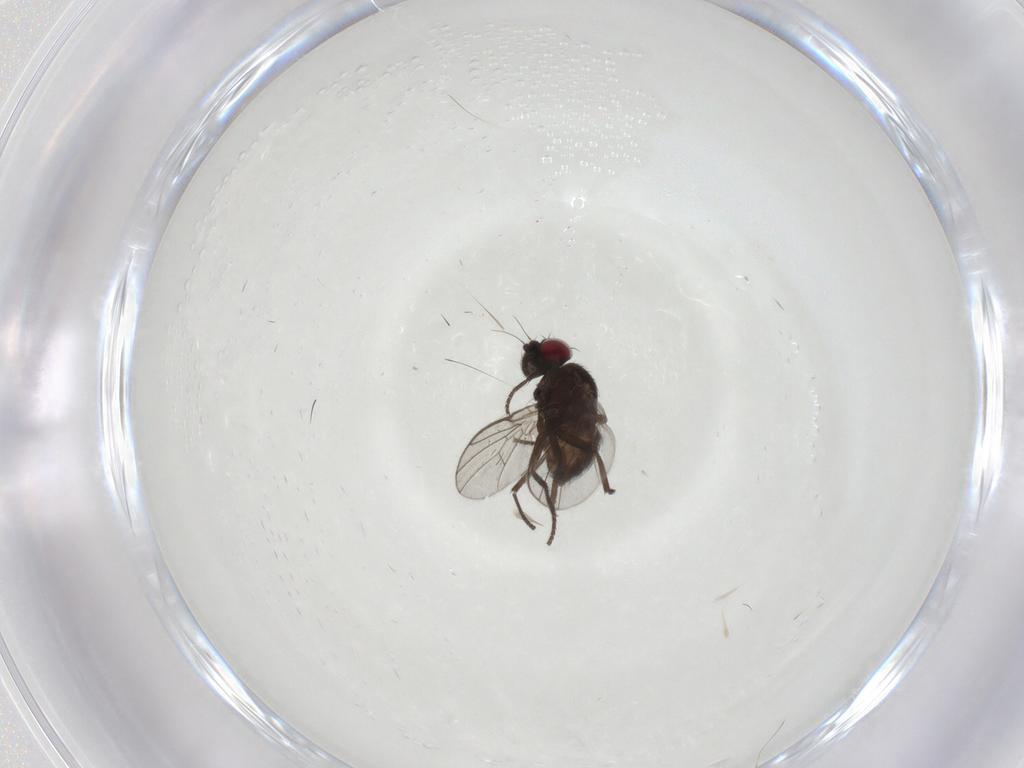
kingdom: Animalia
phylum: Arthropoda
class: Insecta
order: Diptera
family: Agromyzidae
